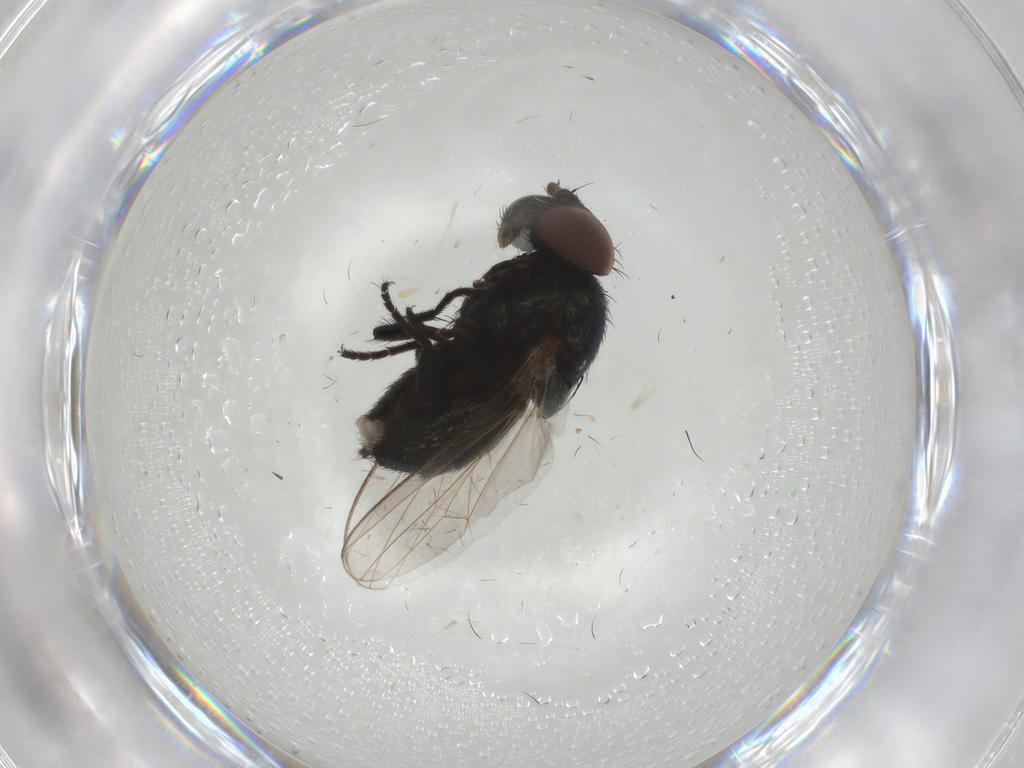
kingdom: Animalia
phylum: Arthropoda
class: Insecta
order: Diptera
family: Milichiidae
